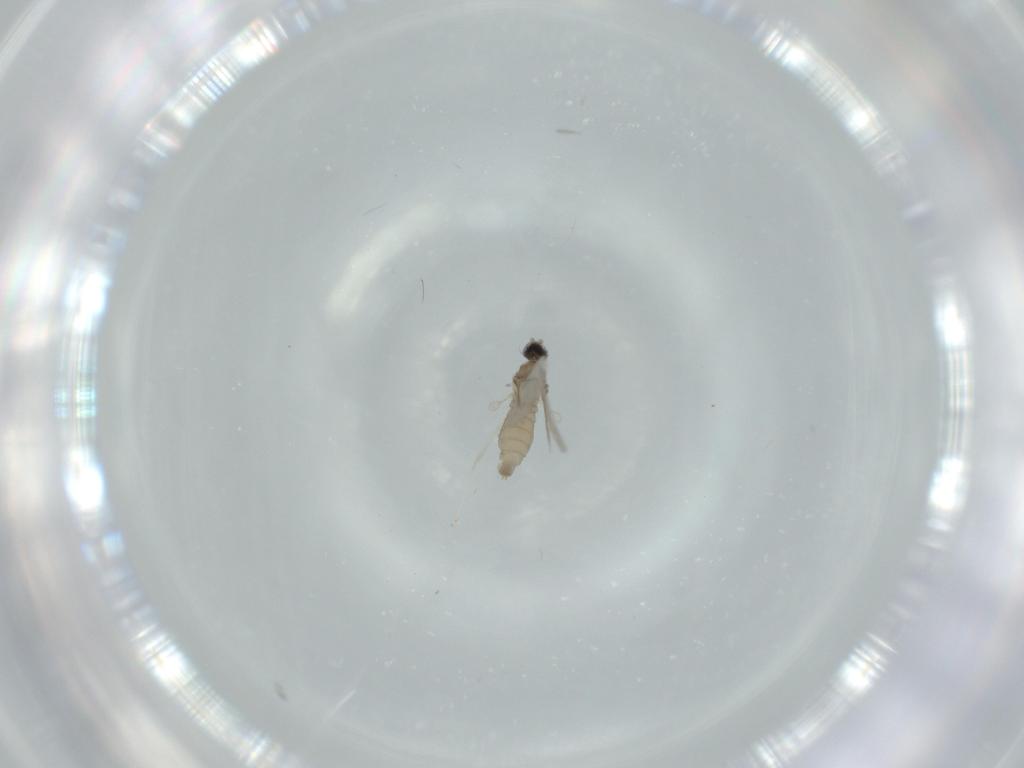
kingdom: Animalia
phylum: Arthropoda
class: Insecta
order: Diptera
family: Cecidomyiidae
